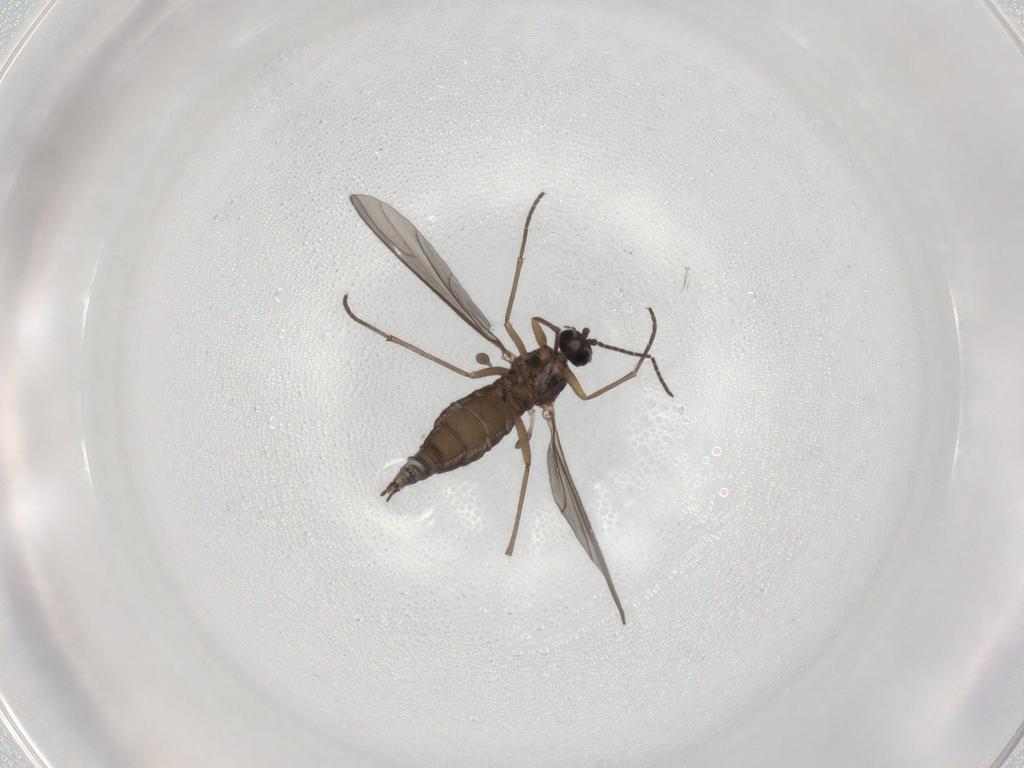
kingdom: Animalia
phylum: Arthropoda
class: Insecta
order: Diptera
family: Sciaridae
